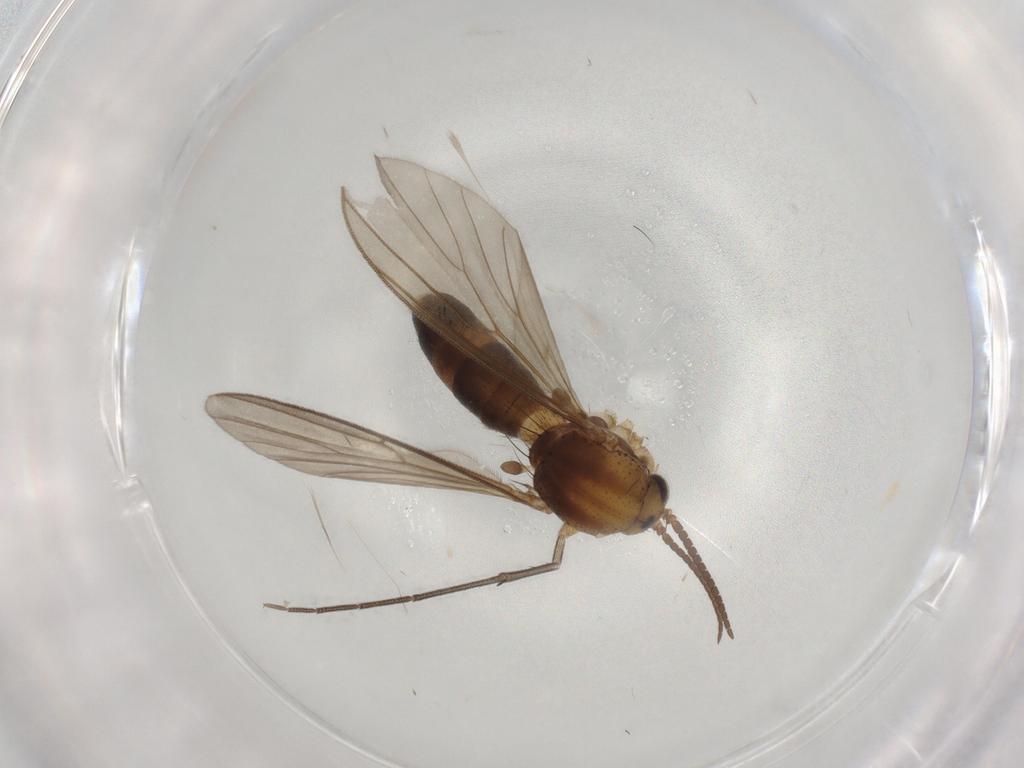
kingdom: Animalia
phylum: Arthropoda
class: Insecta
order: Diptera
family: Mycetophilidae
